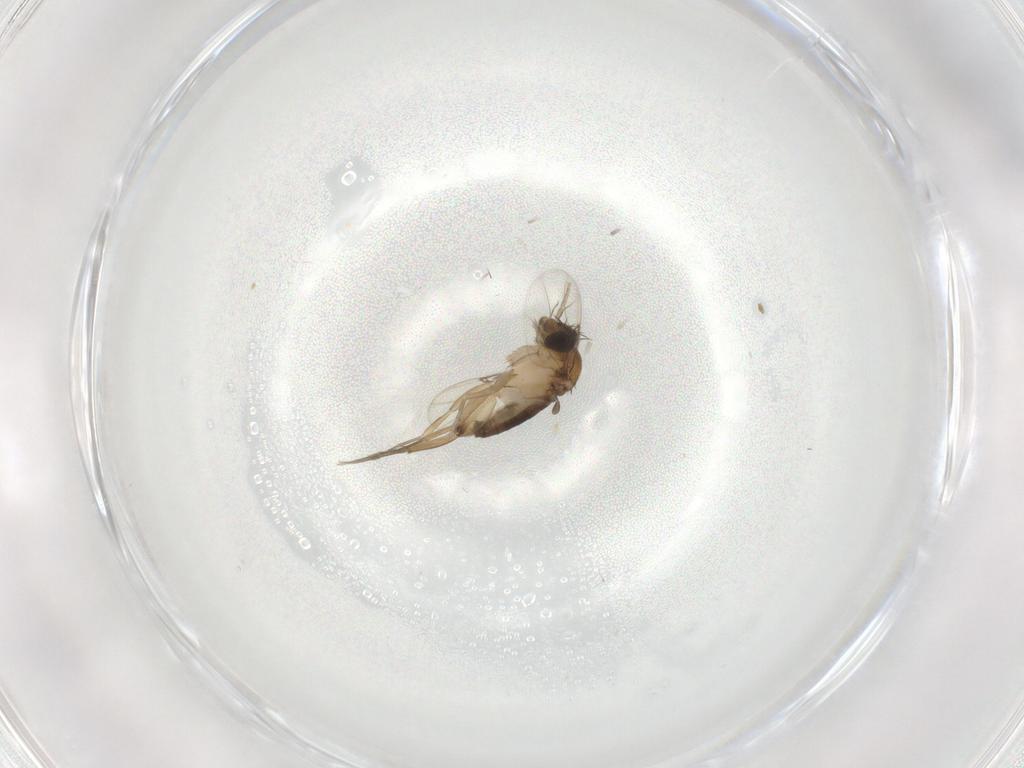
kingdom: Animalia
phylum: Arthropoda
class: Insecta
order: Diptera
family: Phoridae
